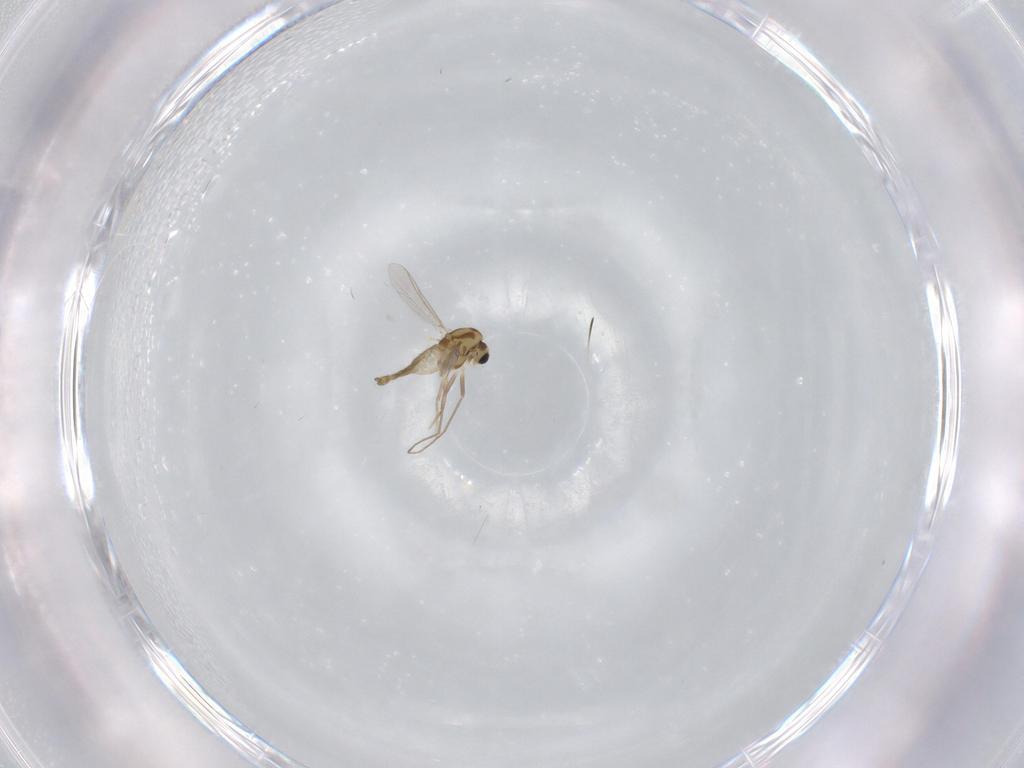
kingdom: Animalia
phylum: Arthropoda
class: Insecta
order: Diptera
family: Chironomidae
